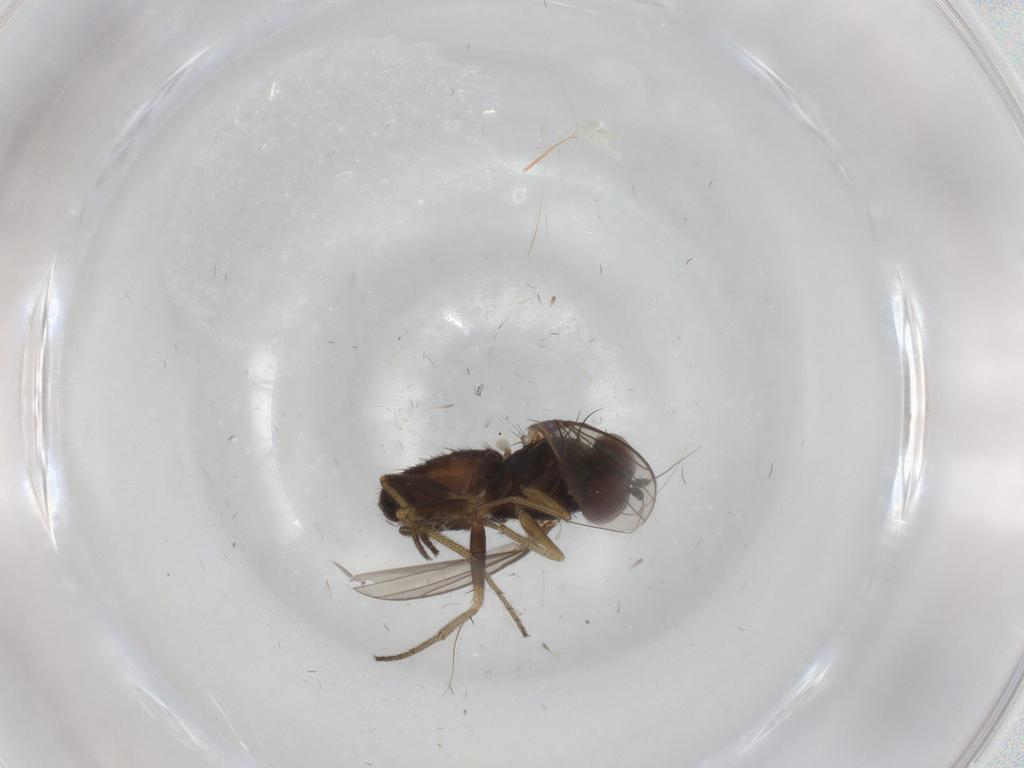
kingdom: Animalia
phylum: Arthropoda
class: Insecta
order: Diptera
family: Dolichopodidae
